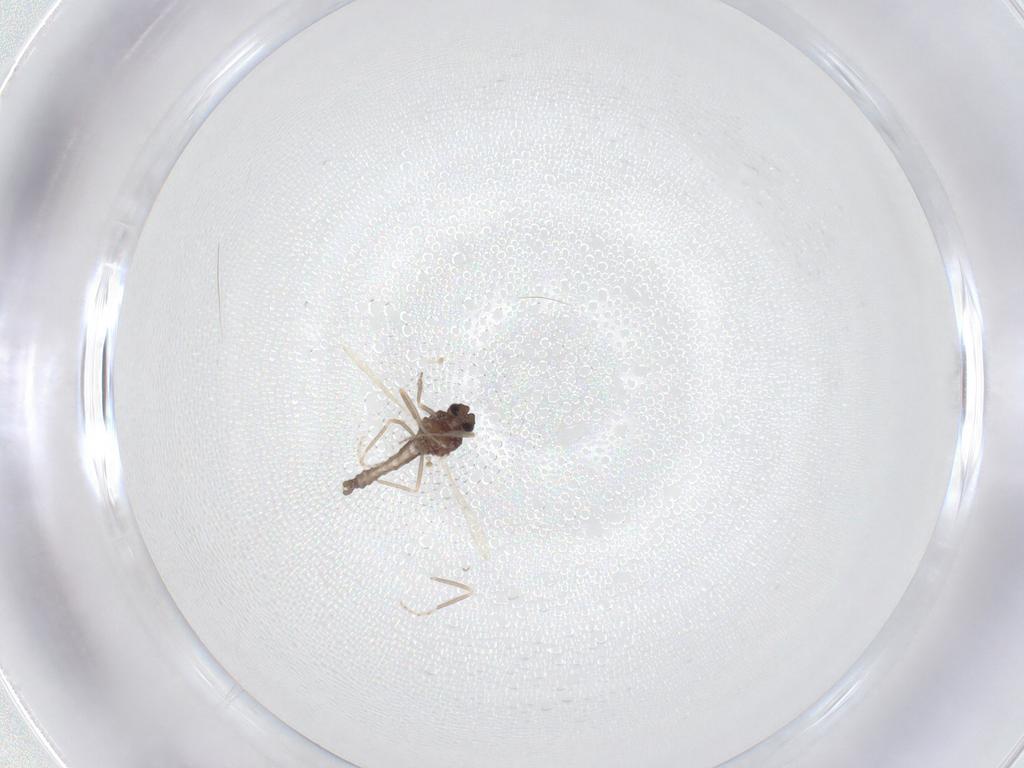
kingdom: Animalia
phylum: Arthropoda
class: Insecta
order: Diptera
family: Ceratopogonidae
